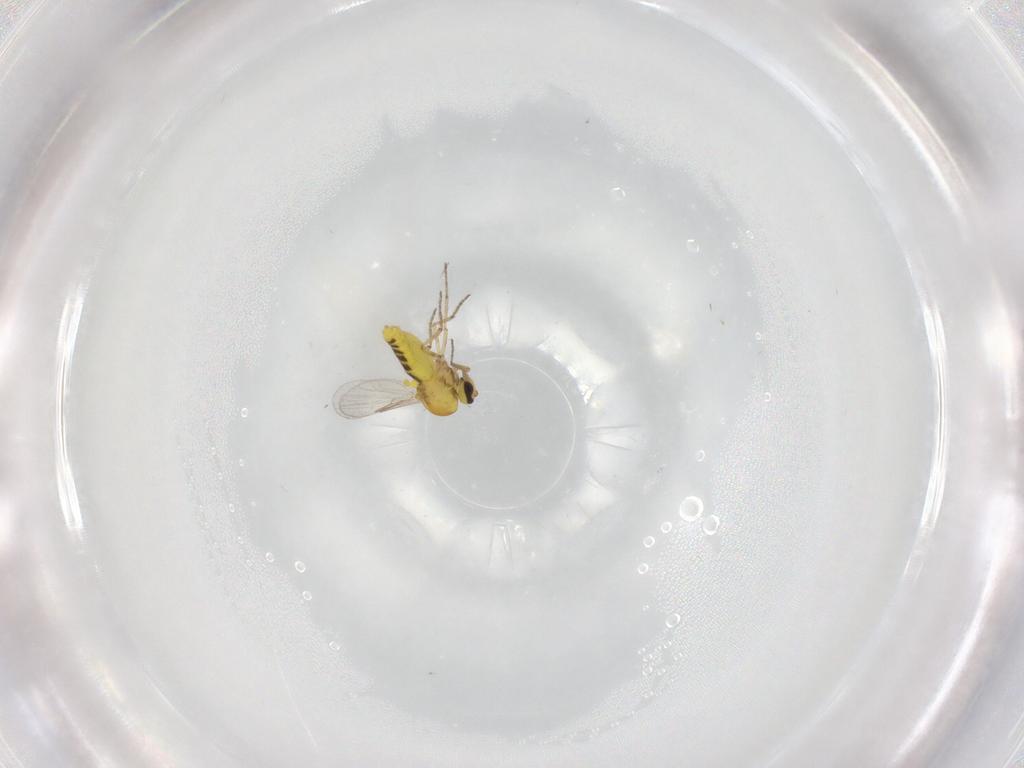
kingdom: Animalia
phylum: Arthropoda
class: Insecta
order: Diptera
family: Ceratopogonidae
